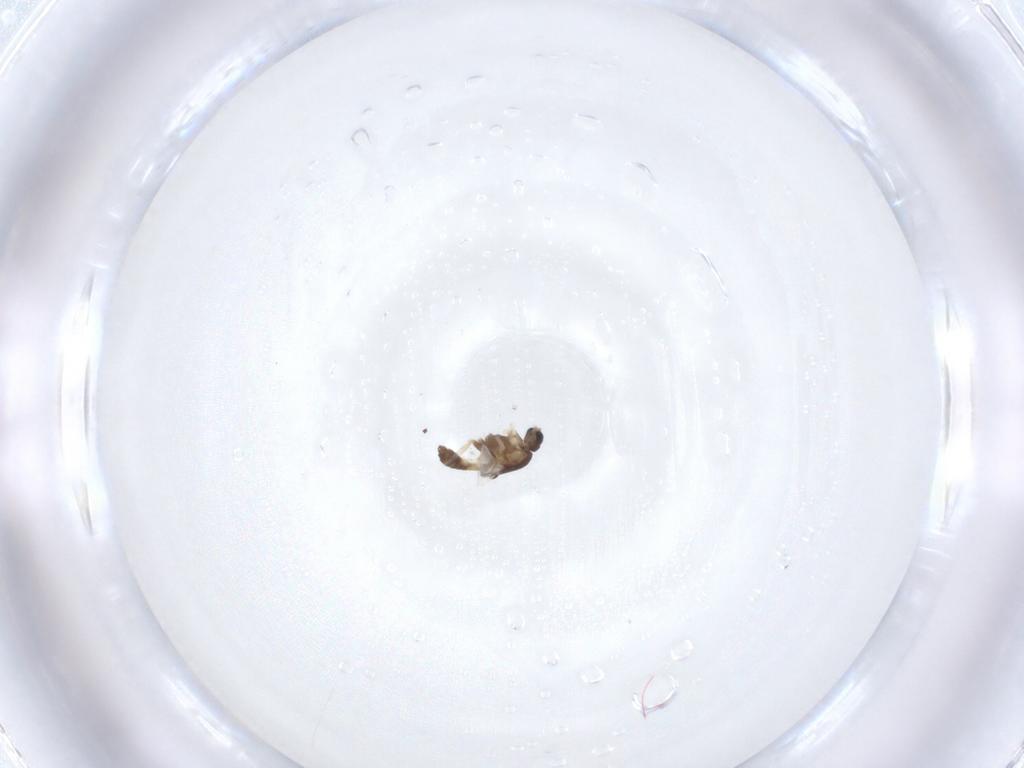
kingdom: Animalia
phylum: Arthropoda
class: Insecta
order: Diptera
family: Chironomidae
